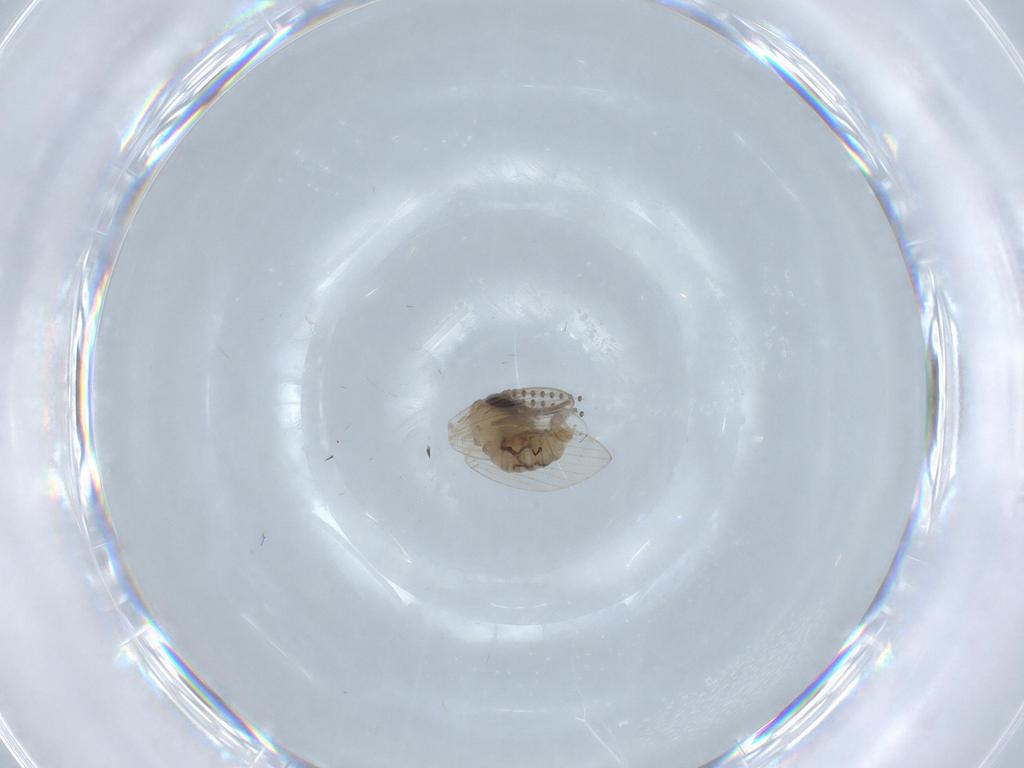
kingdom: Animalia
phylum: Arthropoda
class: Insecta
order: Diptera
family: Psychodidae
